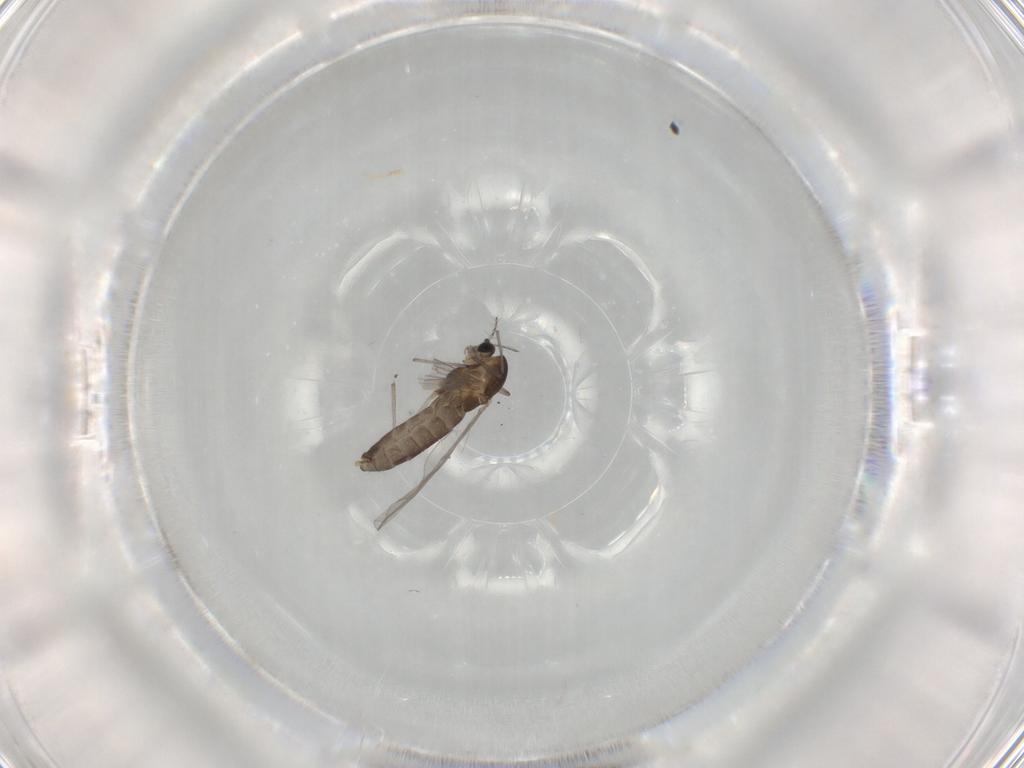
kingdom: Animalia
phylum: Arthropoda
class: Insecta
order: Diptera
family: Chironomidae
